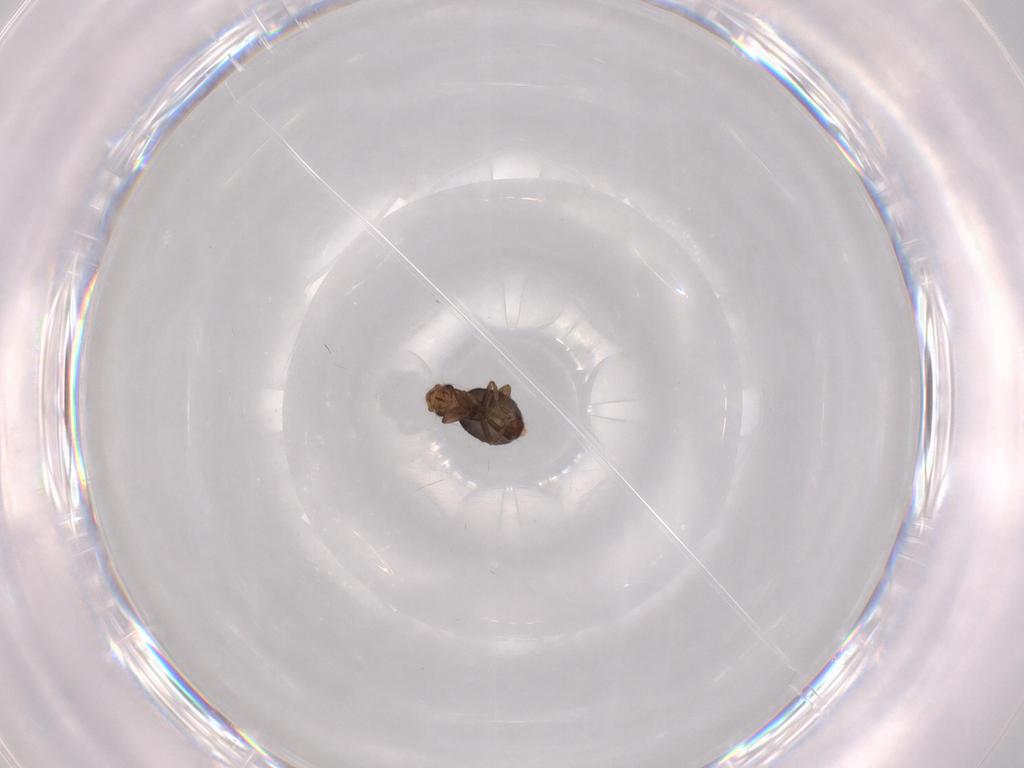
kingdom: Animalia
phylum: Arthropoda
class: Insecta
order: Diptera
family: Phoridae
